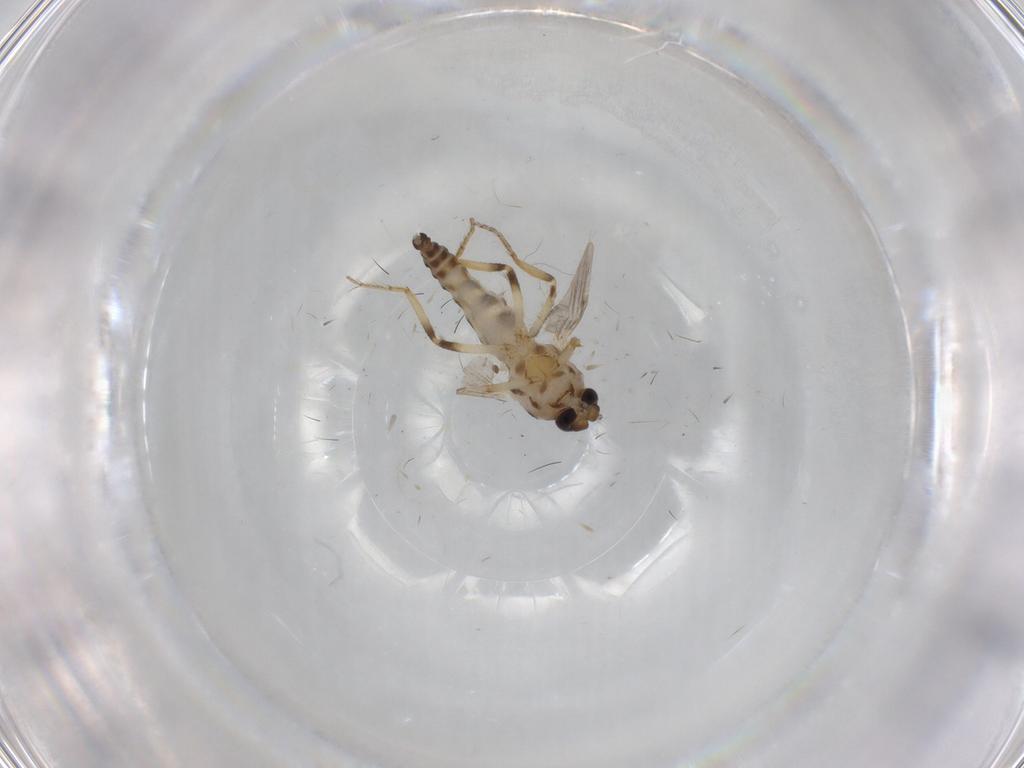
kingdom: Animalia
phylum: Arthropoda
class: Insecta
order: Diptera
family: Ceratopogonidae
